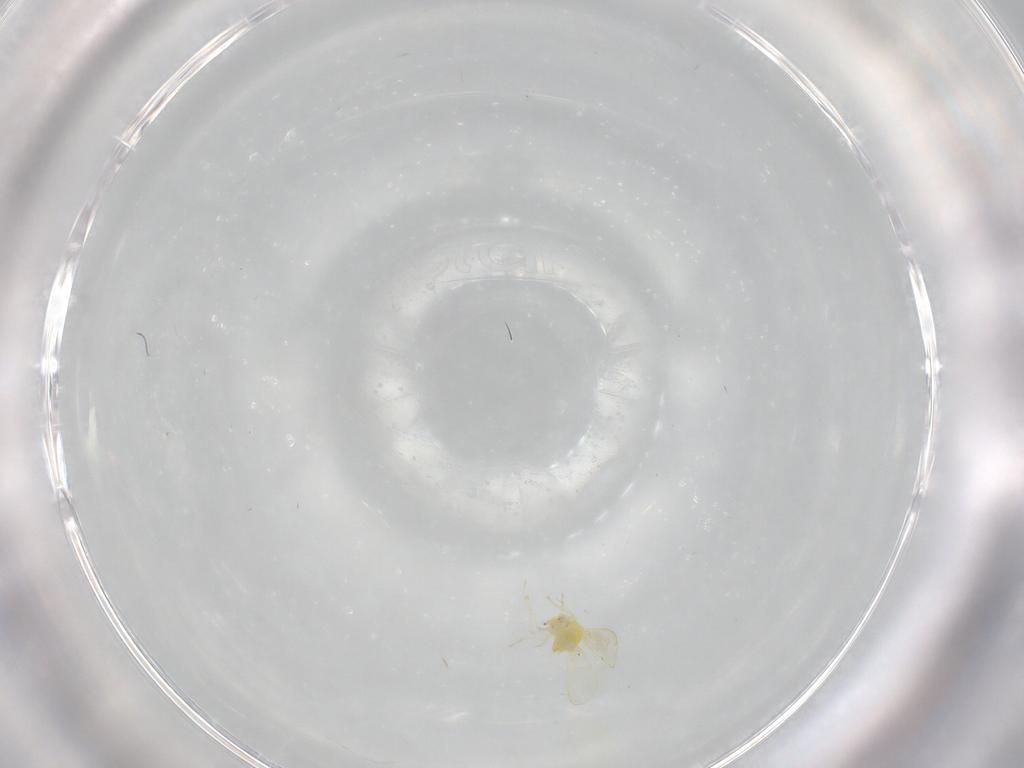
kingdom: Animalia
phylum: Arthropoda
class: Insecta
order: Hemiptera
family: Aleyrodidae
